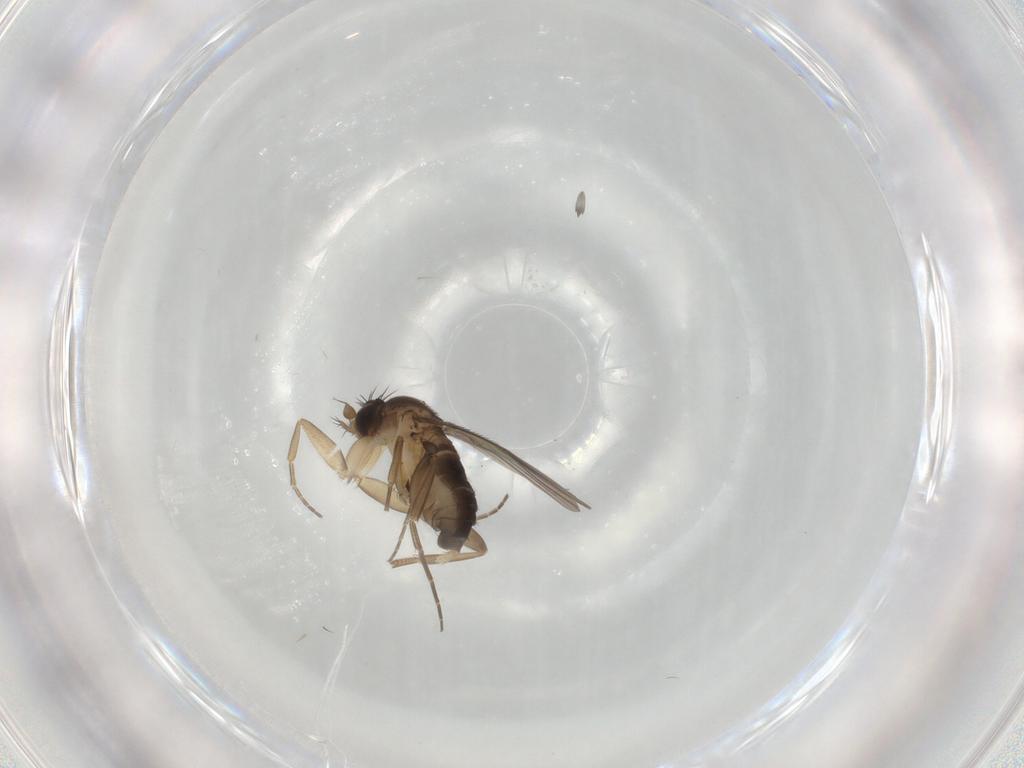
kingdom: Animalia
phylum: Arthropoda
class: Insecta
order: Diptera
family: Phoridae
